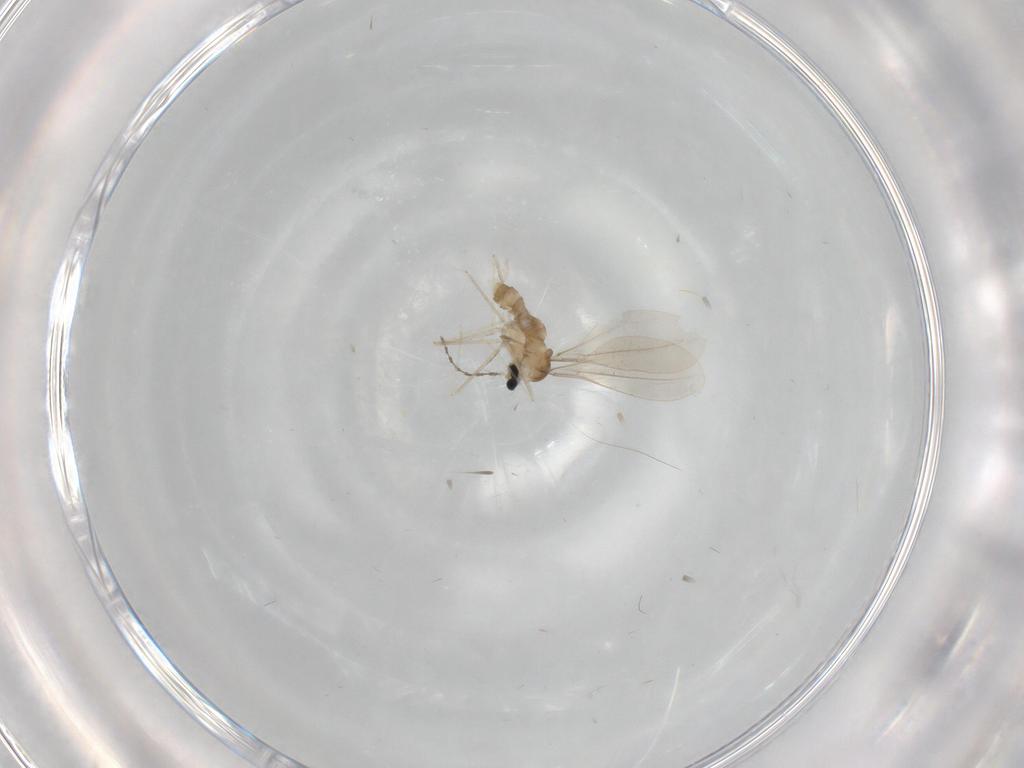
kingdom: Animalia
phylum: Arthropoda
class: Insecta
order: Diptera
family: Cecidomyiidae
